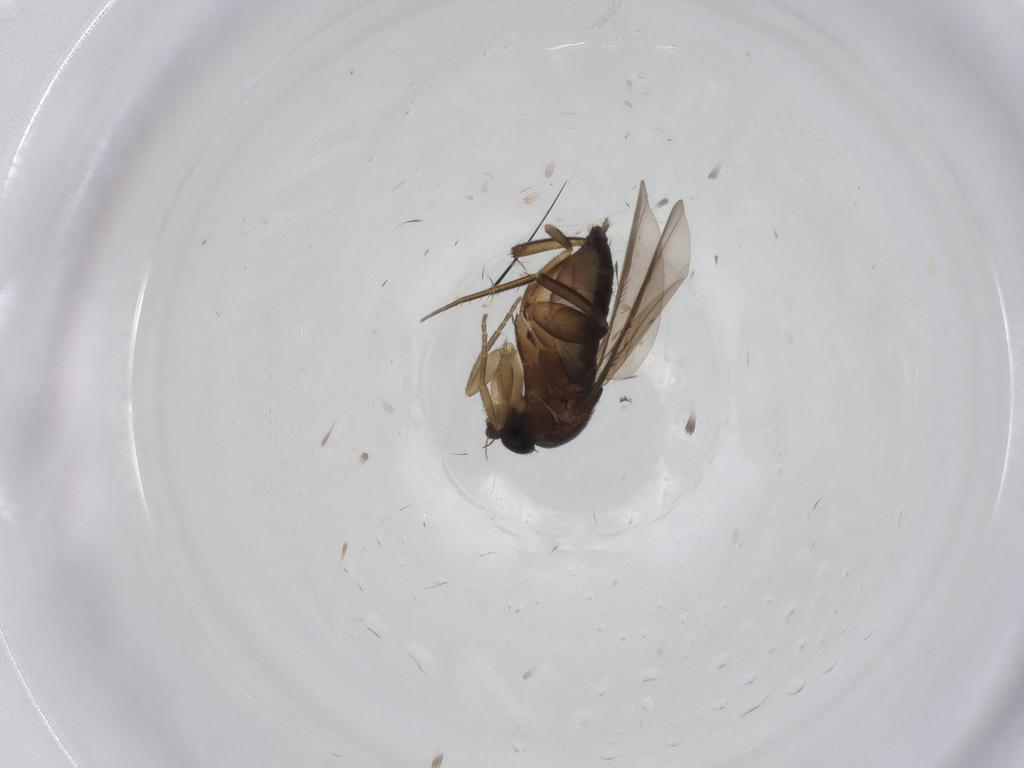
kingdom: Animalia
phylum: Arthropoda
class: Insecta
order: Diptera
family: Phoridae
